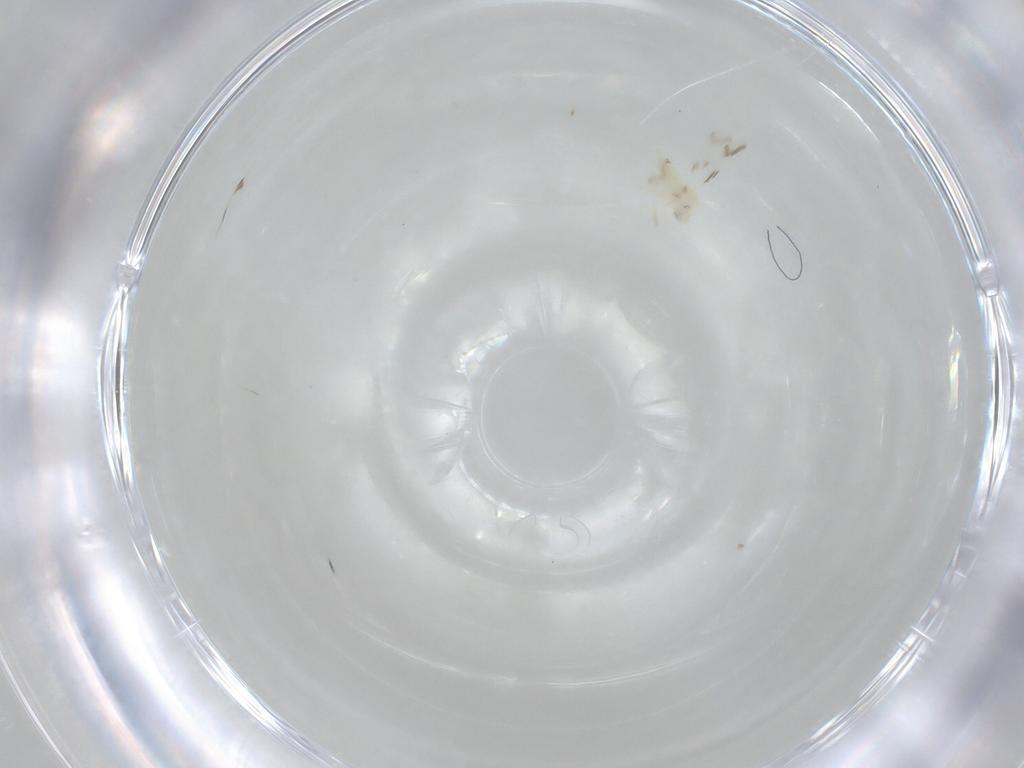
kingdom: Animalia
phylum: Arthropoda
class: Insecta
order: Hemiptera
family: Aleyrodidae
